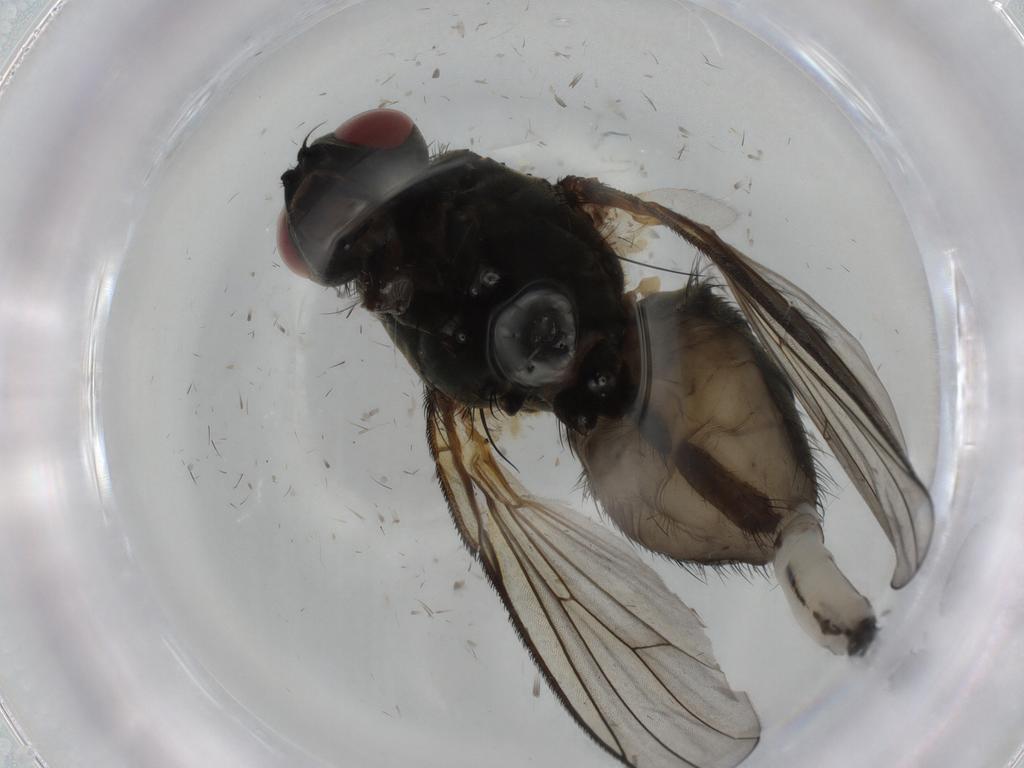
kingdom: Animalia
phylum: Arthropoda
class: Insecta
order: Diptera
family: Muscidae
